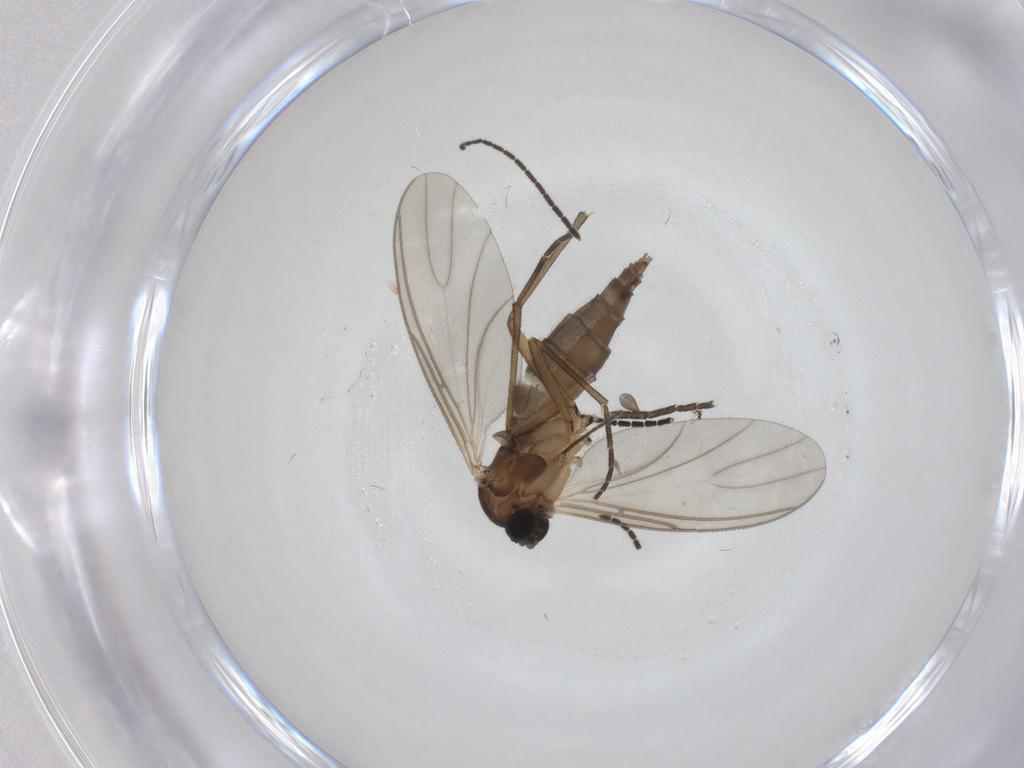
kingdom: Animalia
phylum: Arthropoda
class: Insecta
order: Diptera
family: Sciaridae
